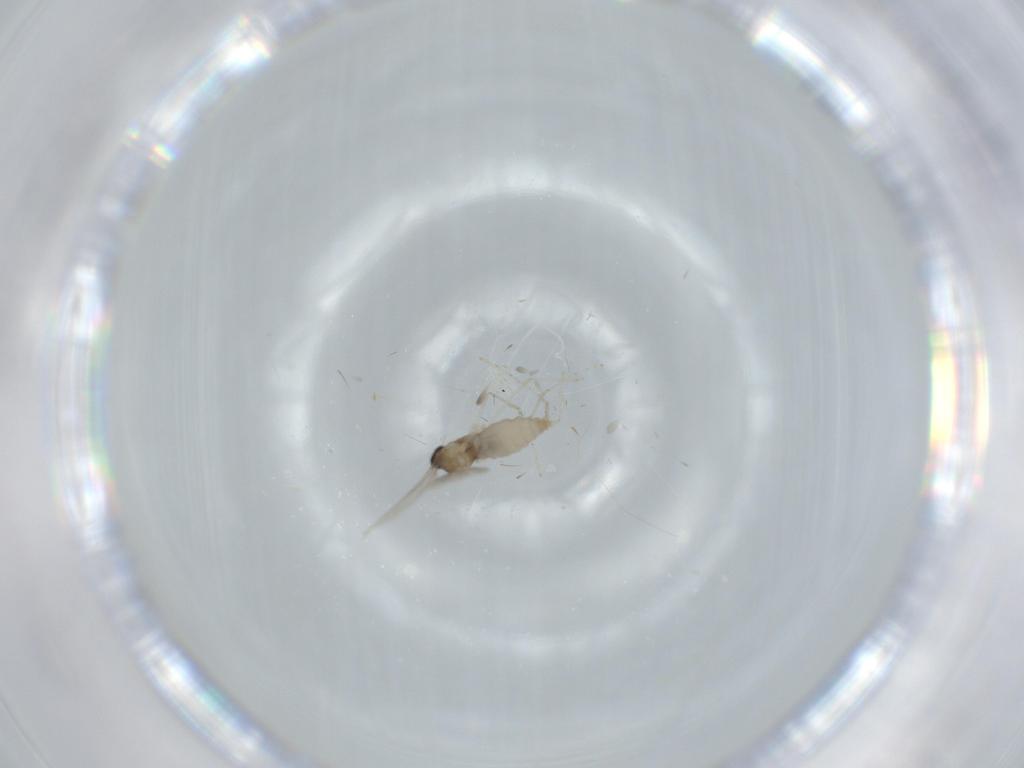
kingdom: Animalia
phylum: Arthropoda
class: Insecta
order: Diptera
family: Cecidomyiidae
